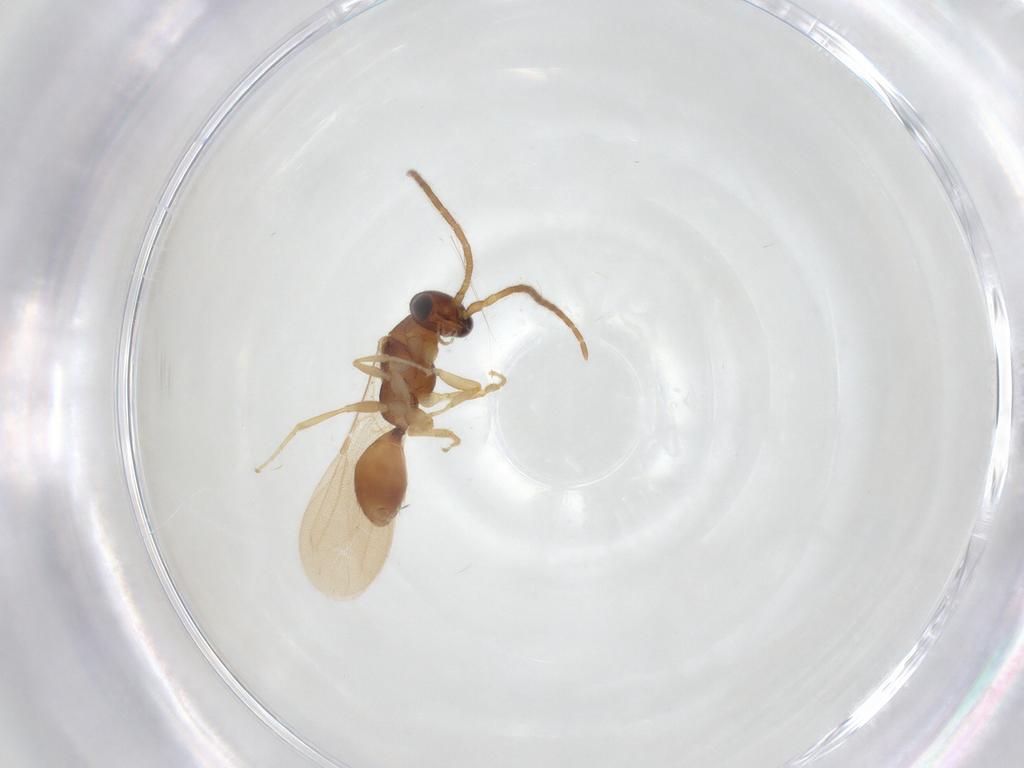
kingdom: Animalia
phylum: Arthropoda
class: Insecta
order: Hymenoptera
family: Bethylidae
